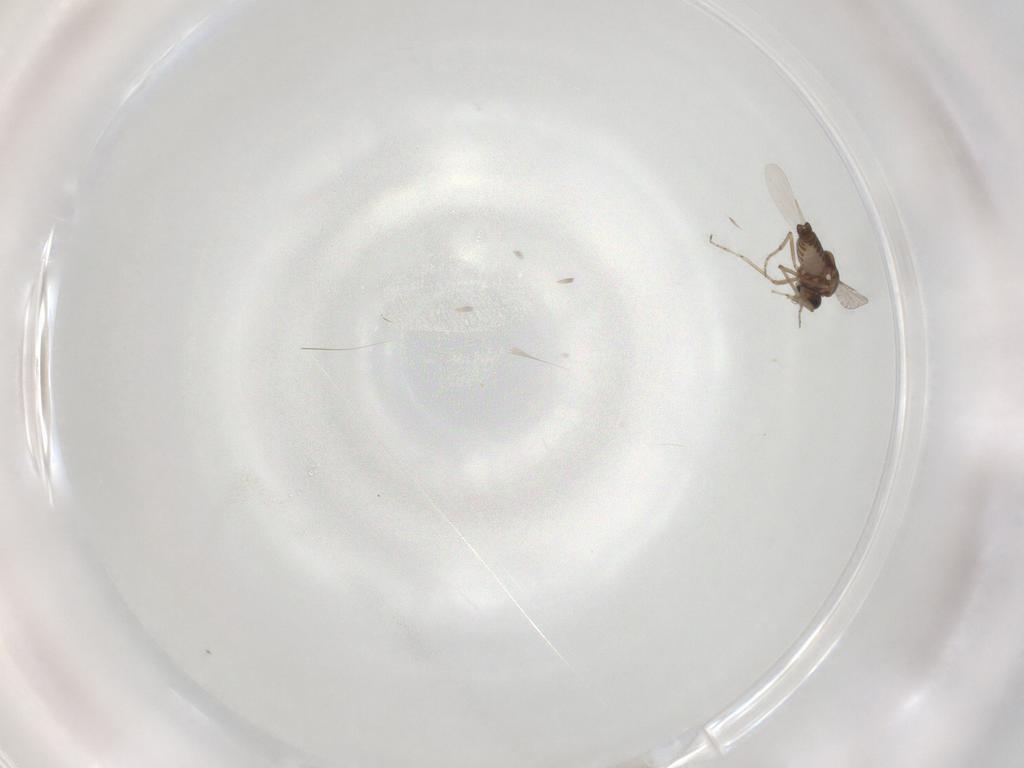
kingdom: Animalia
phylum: Arthropoda
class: Insecta
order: Diptera
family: Ceratopogonidae
